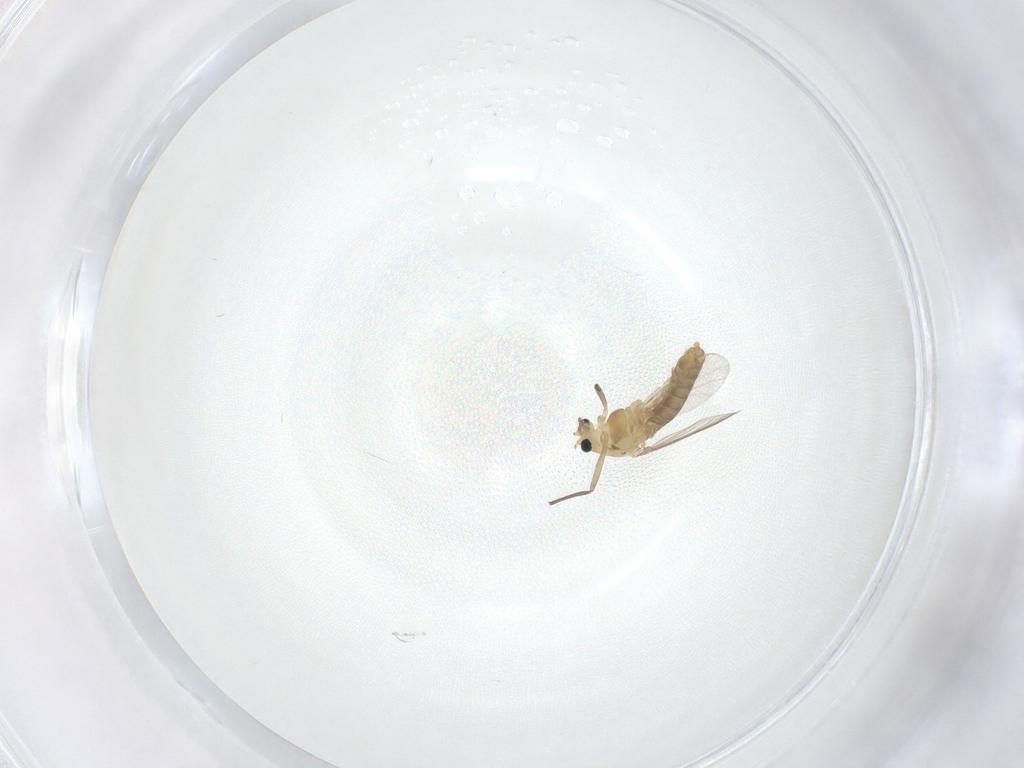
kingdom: Animalia
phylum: Arthropoda
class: Insecta
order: Diptera
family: Chironomidae
